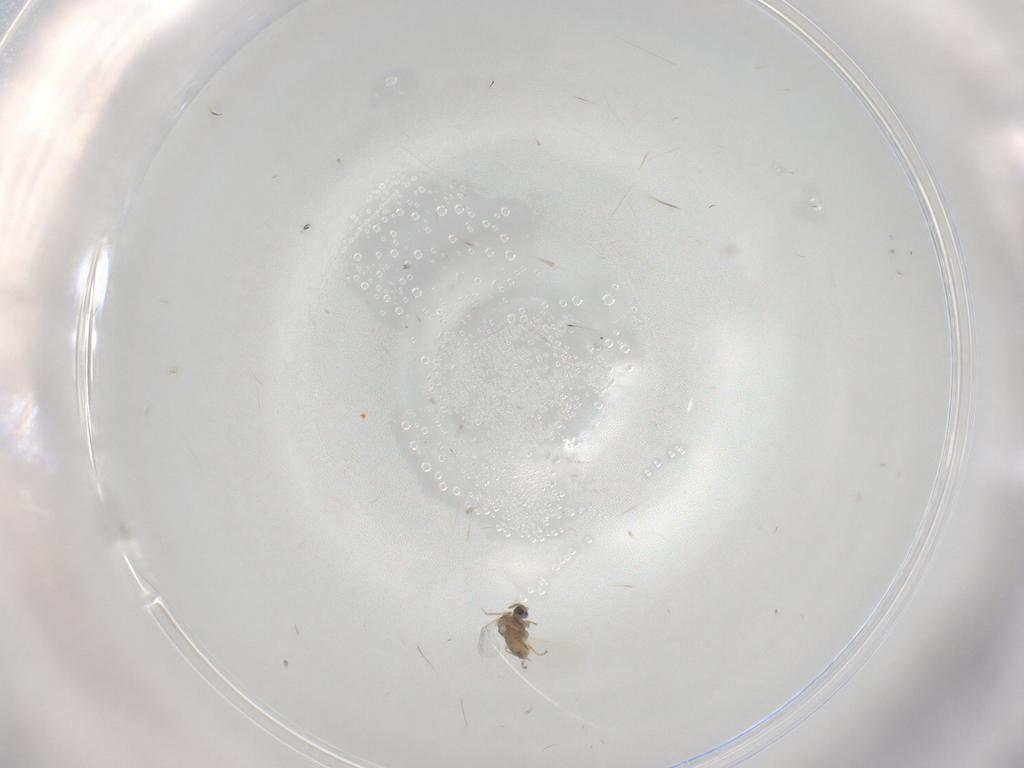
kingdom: Animalia
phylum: Arthropoda
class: Insecta
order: Diptera
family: Cecidomyiidae
